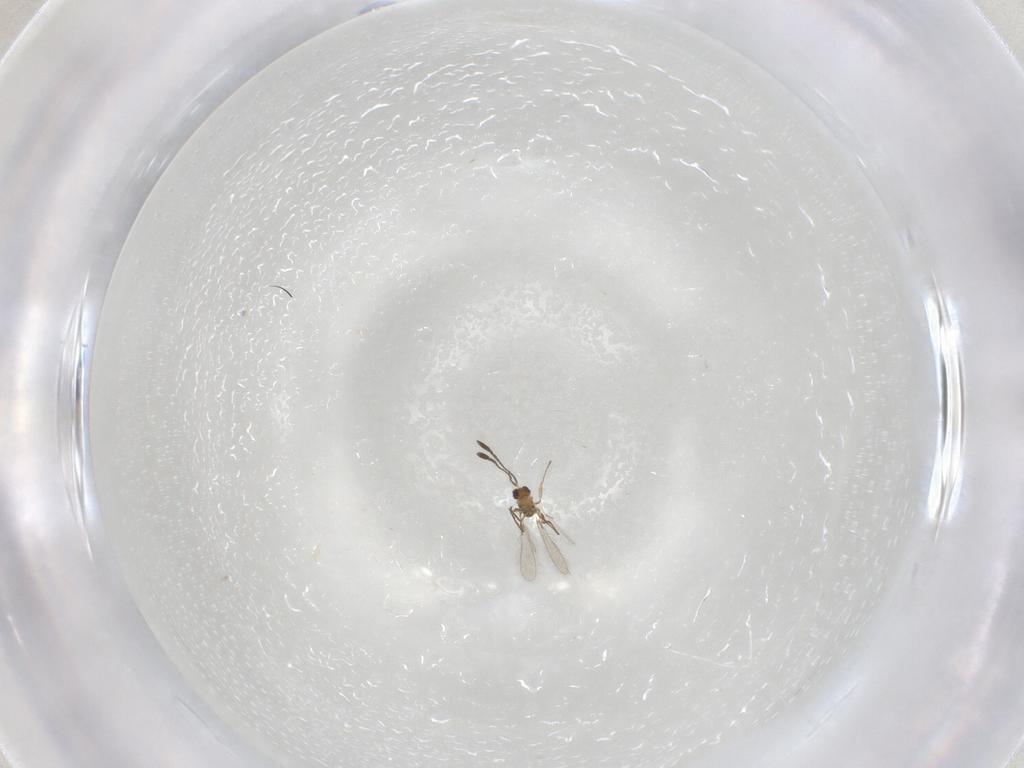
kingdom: Animalia
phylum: Arthropoda
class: Insecta
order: Hymenoptera
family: Mymaridae
